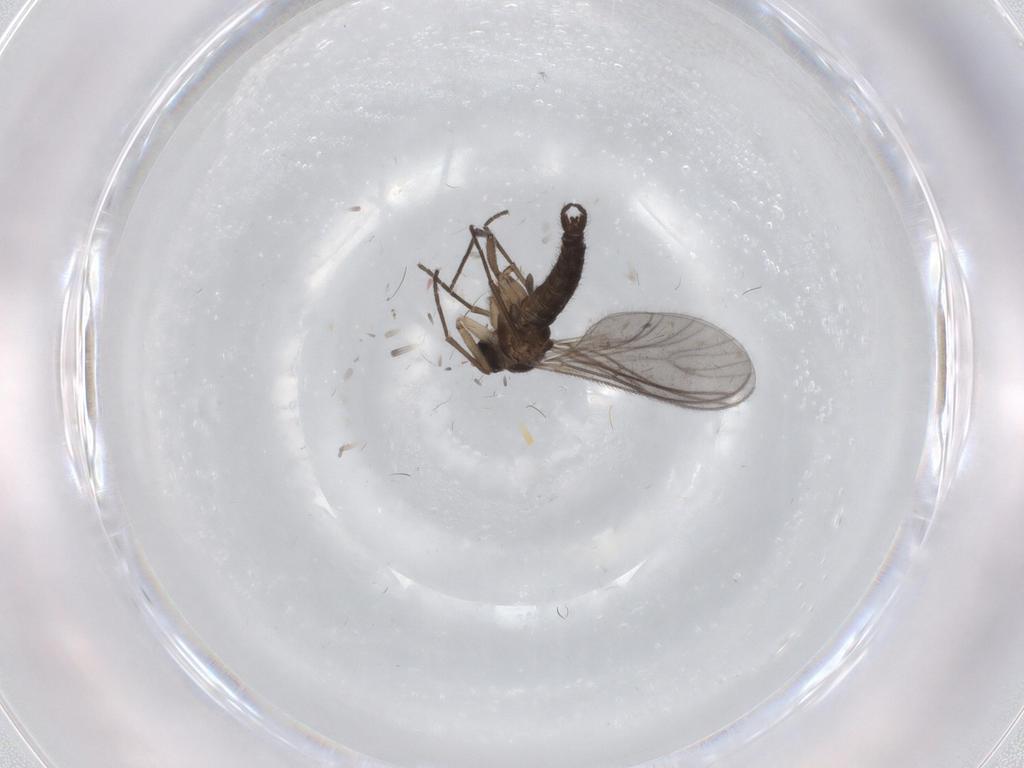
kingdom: Animalia
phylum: Arthropoda
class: Insecta
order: Diptera
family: Sciaridae
